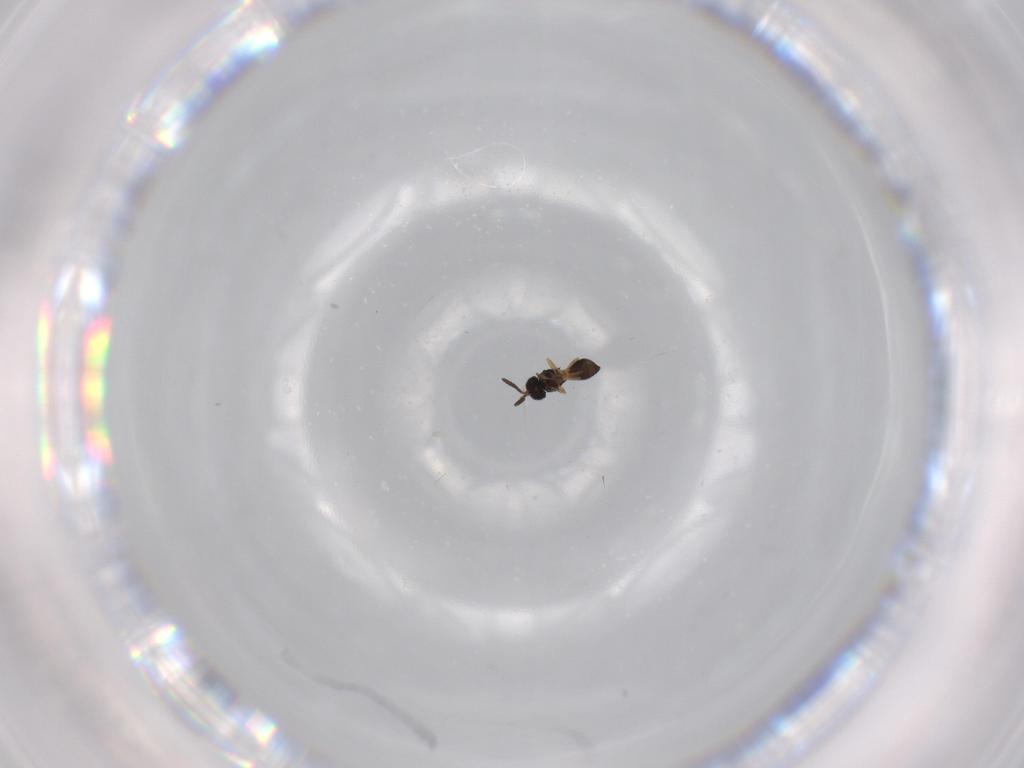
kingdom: Animalia
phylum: Arthropoda
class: Insecta
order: Hymenoptera
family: Scelionidae
